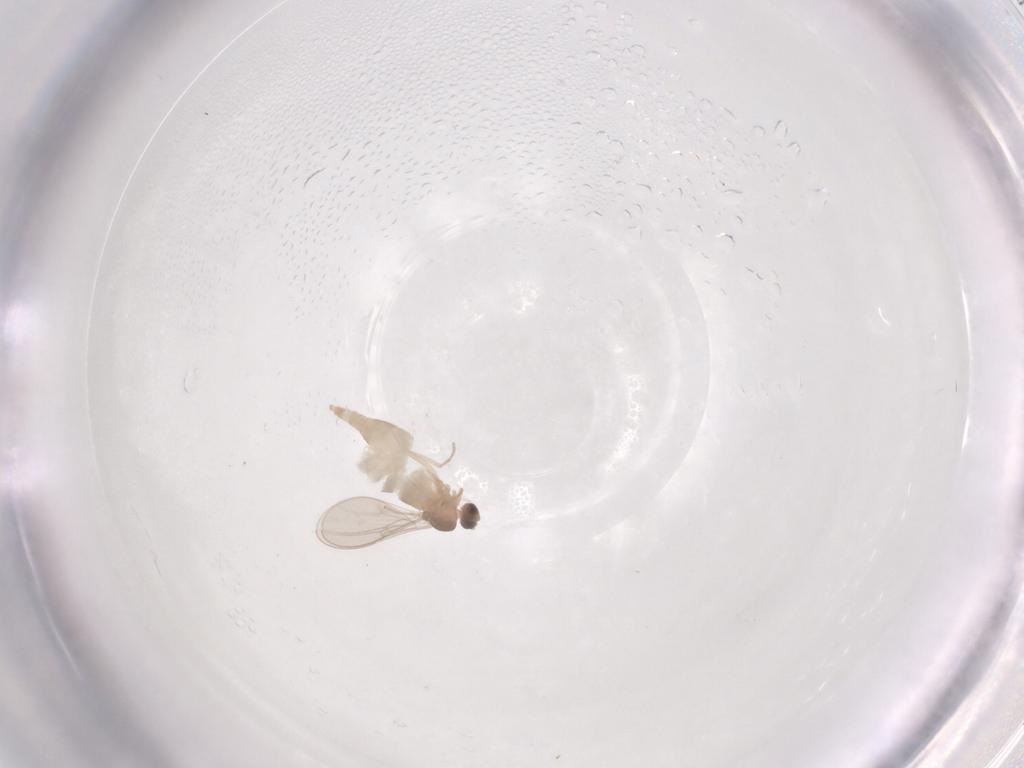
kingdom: Animalia
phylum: Arthropoda
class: Insecta
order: Diptera
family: Cecidomyiidae
